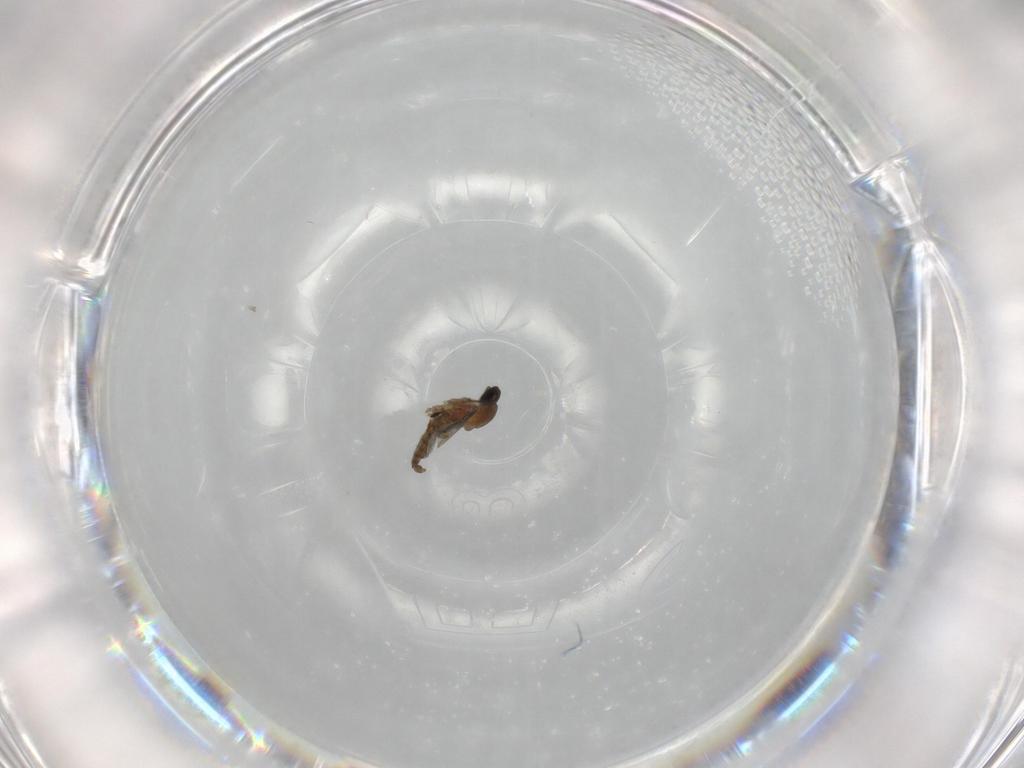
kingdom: Animalia
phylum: Arthropoda
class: Insecta
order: Diptera
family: Cecidomyiidae
